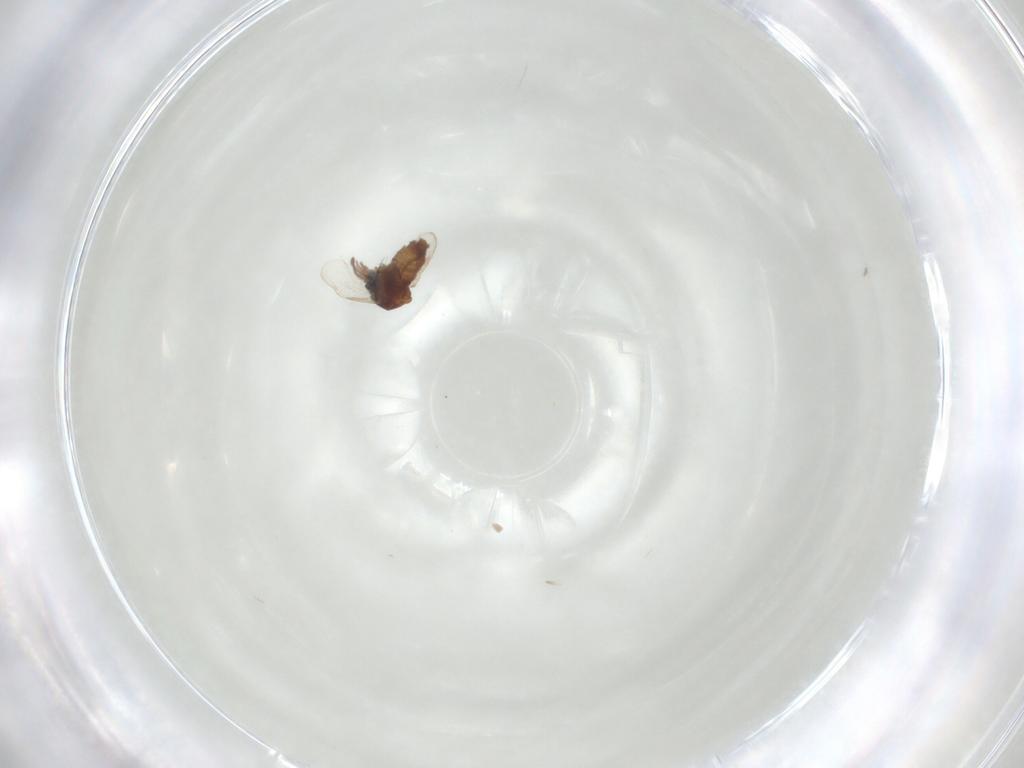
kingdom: Animalia
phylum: Arthropoda
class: Insecta
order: Diptera
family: Ceratopogonidae
